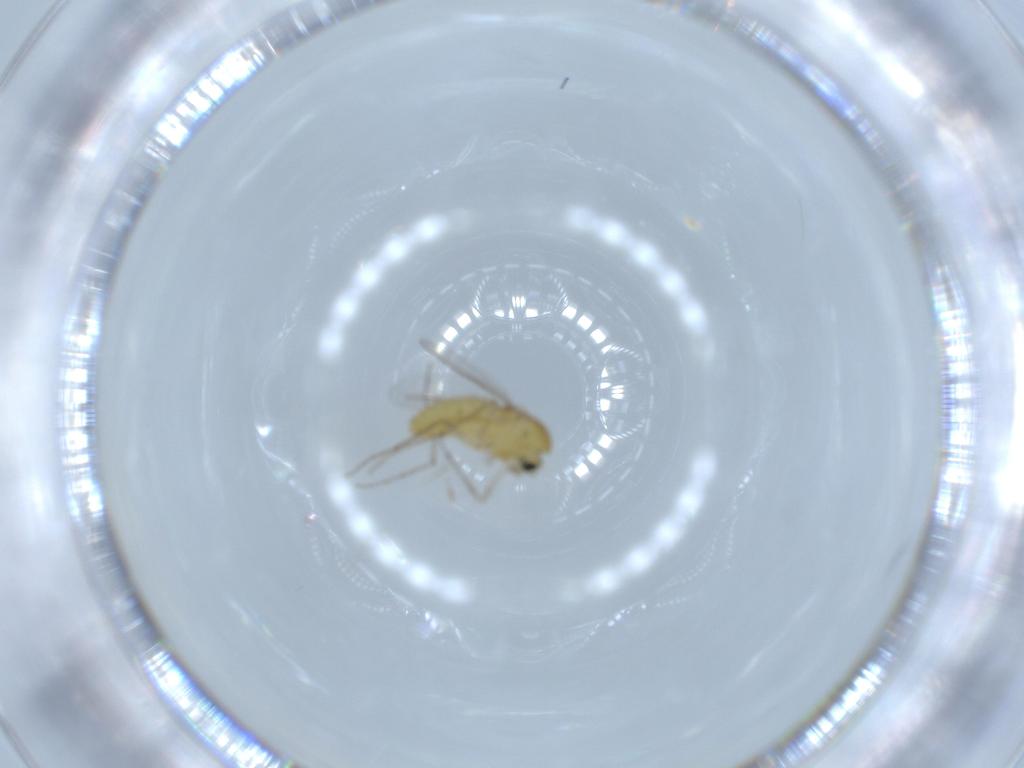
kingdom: Animalia
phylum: Arthropoda
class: Insecta
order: Diptera
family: Chironomidae
